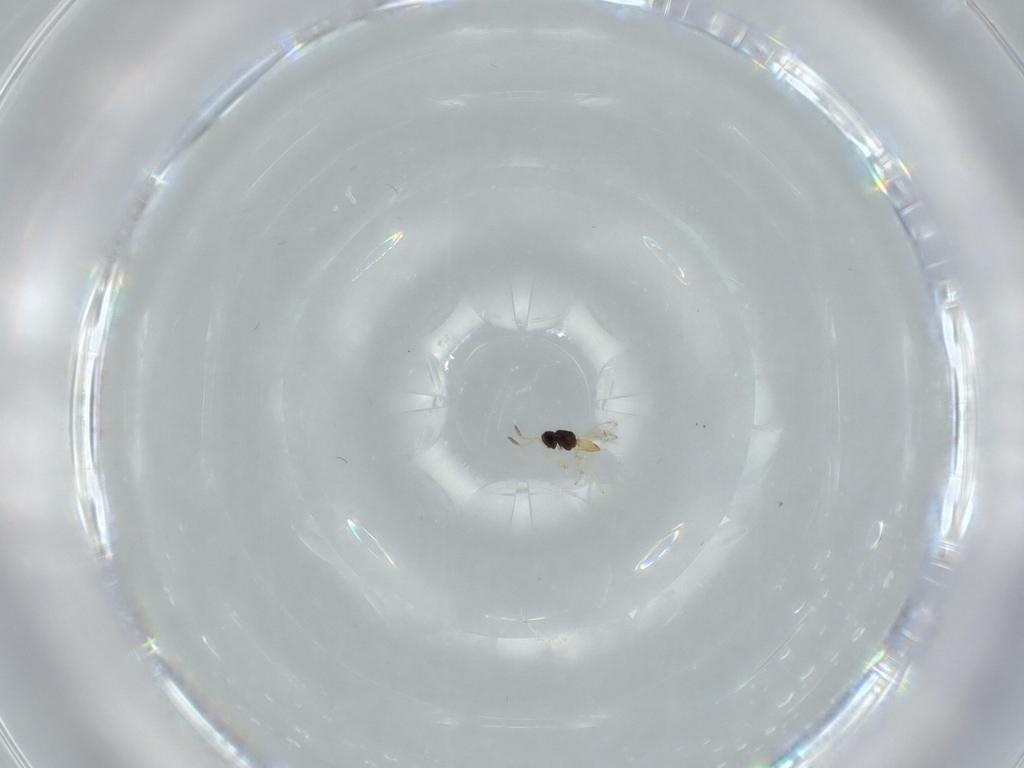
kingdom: Animalia
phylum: Arthropoda
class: Insecta
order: Hymenoptera
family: Scelionidae
